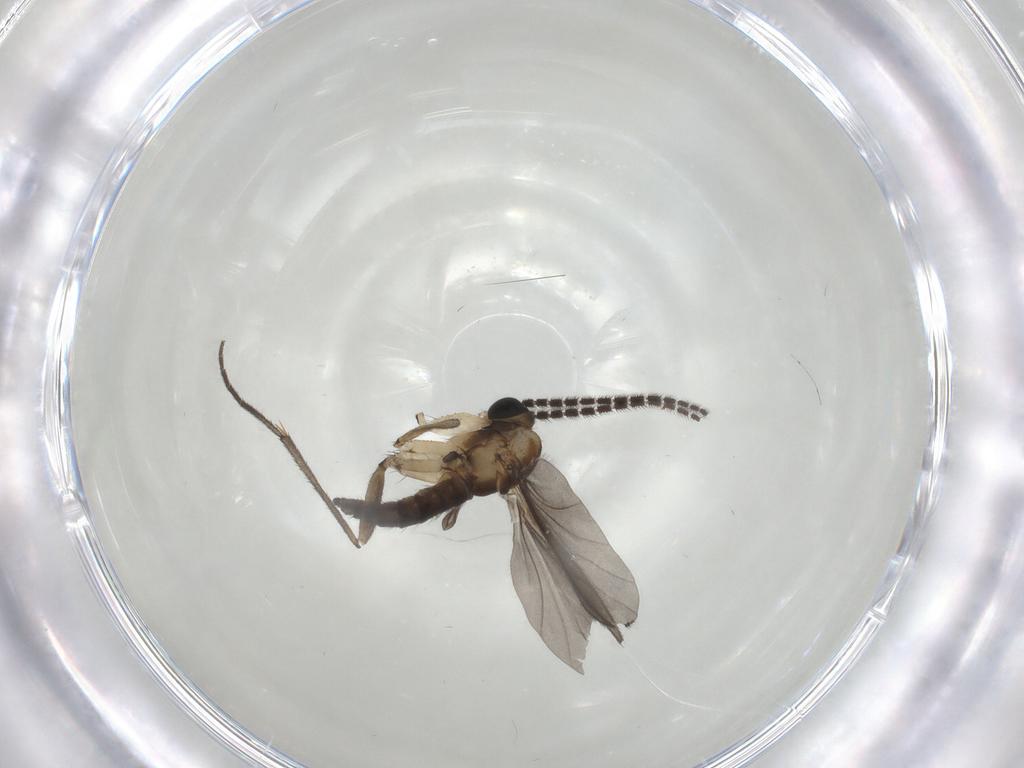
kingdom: Animalia
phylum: Arthropoda
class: Insecta
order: Diptera
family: Sciaridae
